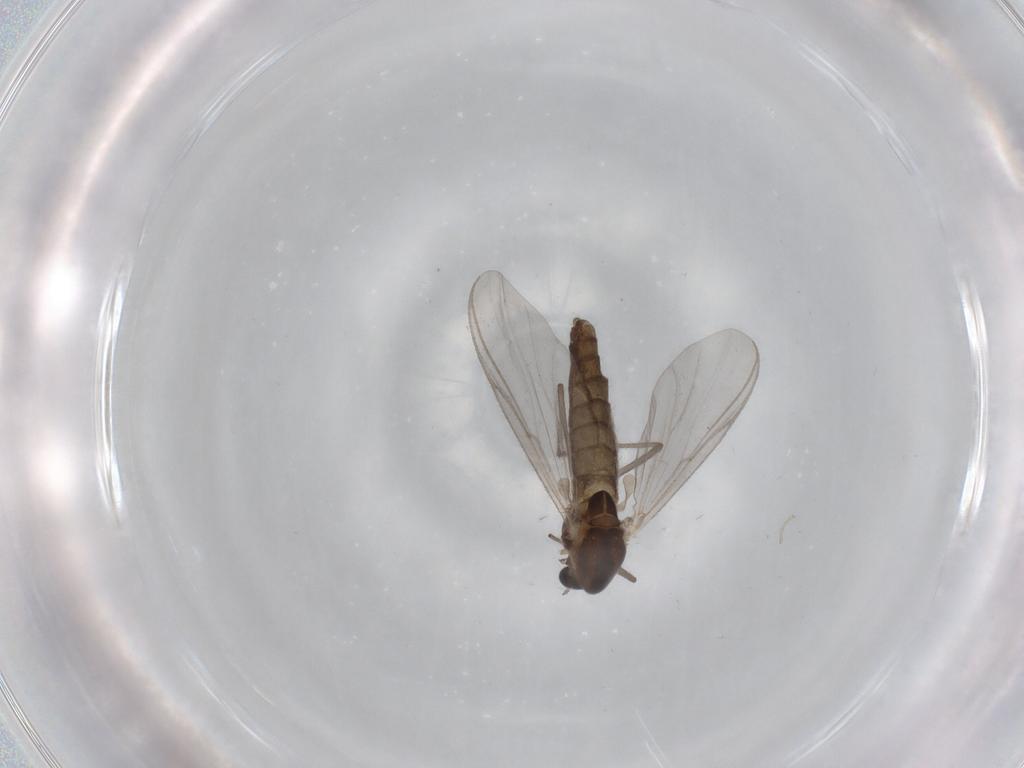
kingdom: Animalia
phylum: Arthropoda
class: Insecta
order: Diptera
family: Chironomidae
